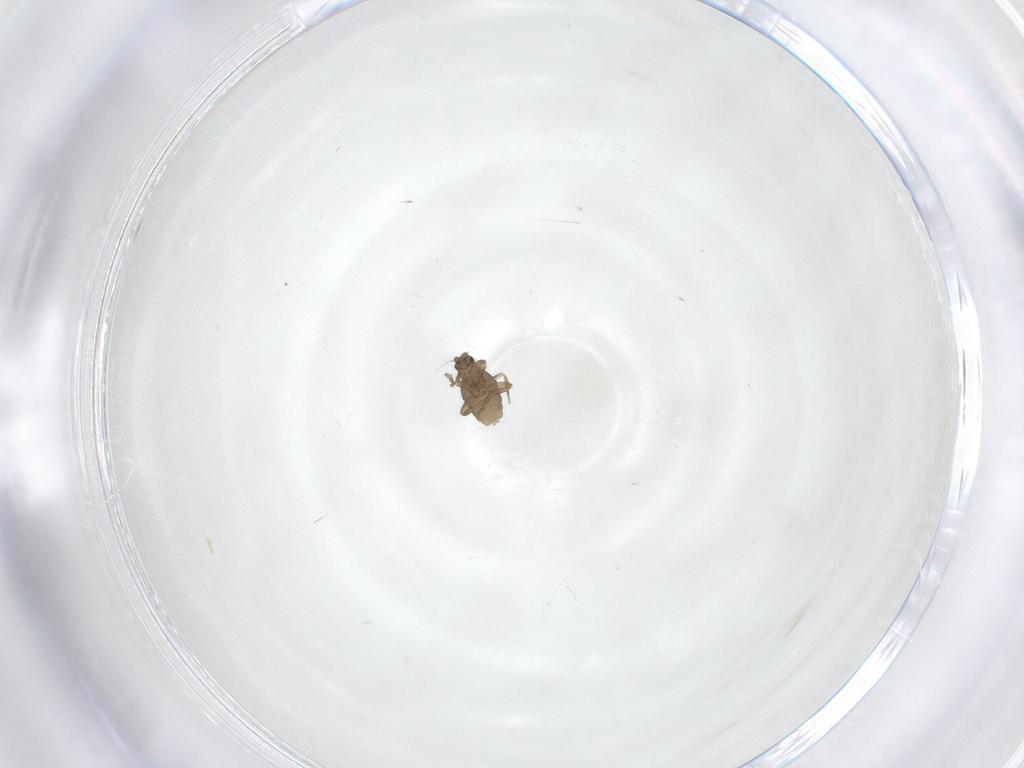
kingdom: Animalia
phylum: Arthropoda
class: Insecta
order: Diptera
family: Phoridae
